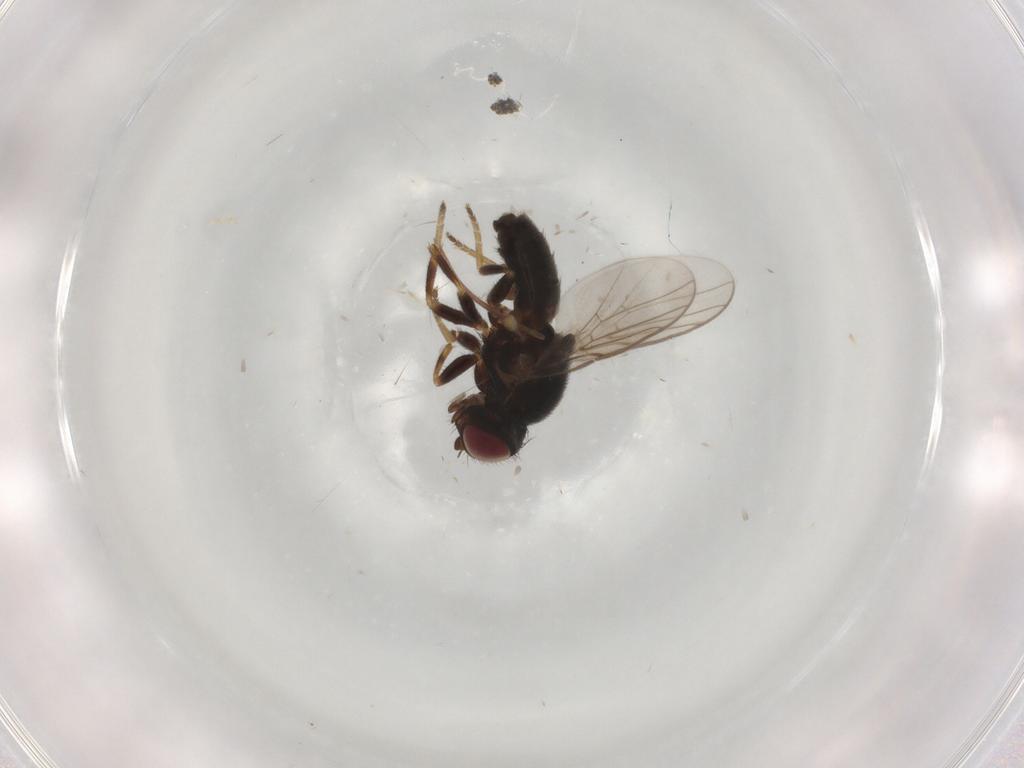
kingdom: Animalia
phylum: Arthropoda
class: Insecta
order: Diptera
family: Chloropidae
